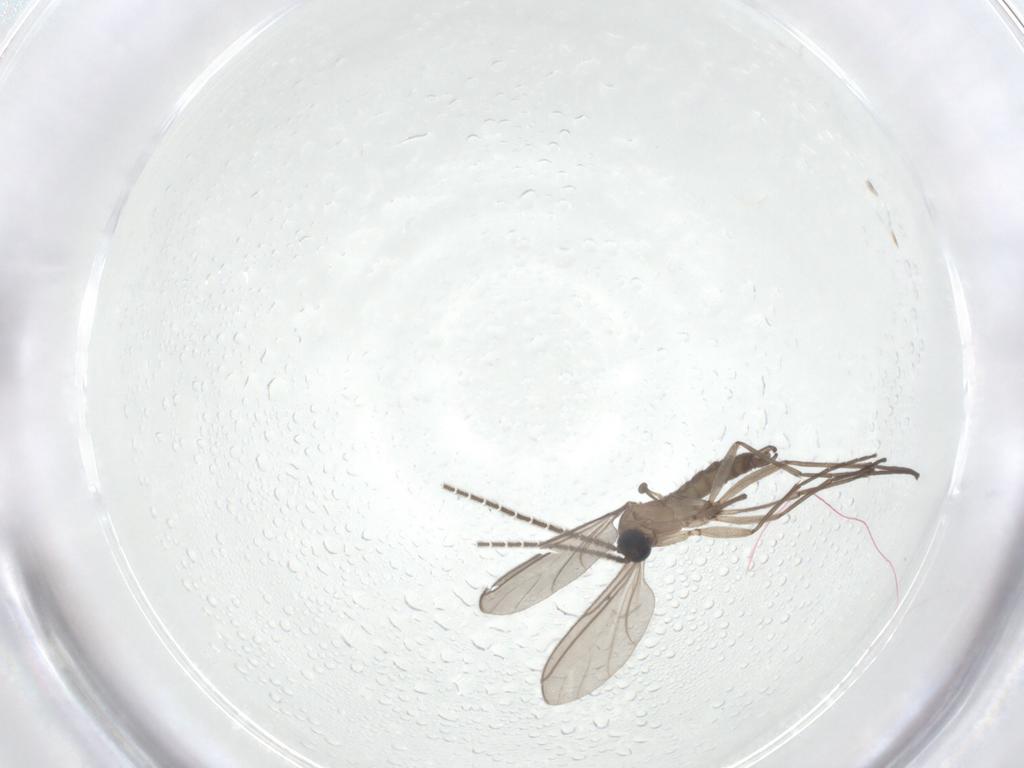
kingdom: Animalia
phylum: Arthropoda
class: Insecta
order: Diptera
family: Sciaridae
